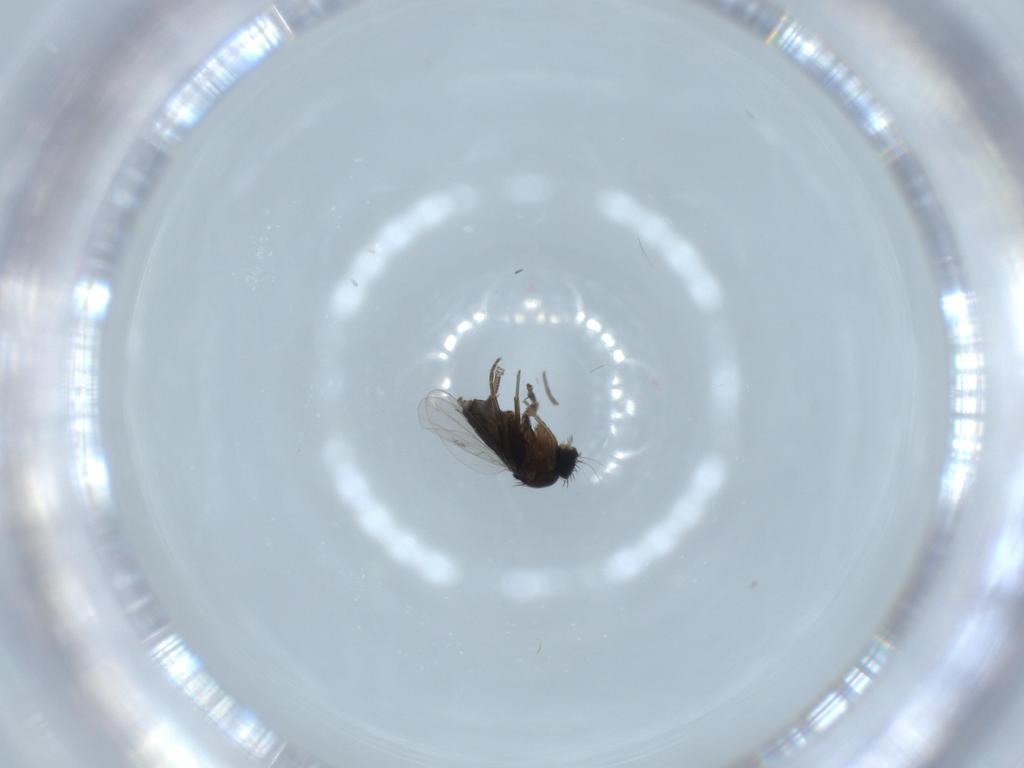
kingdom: Animalia
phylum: Arthropoda
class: Insecta
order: Diptera
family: Phoridae
